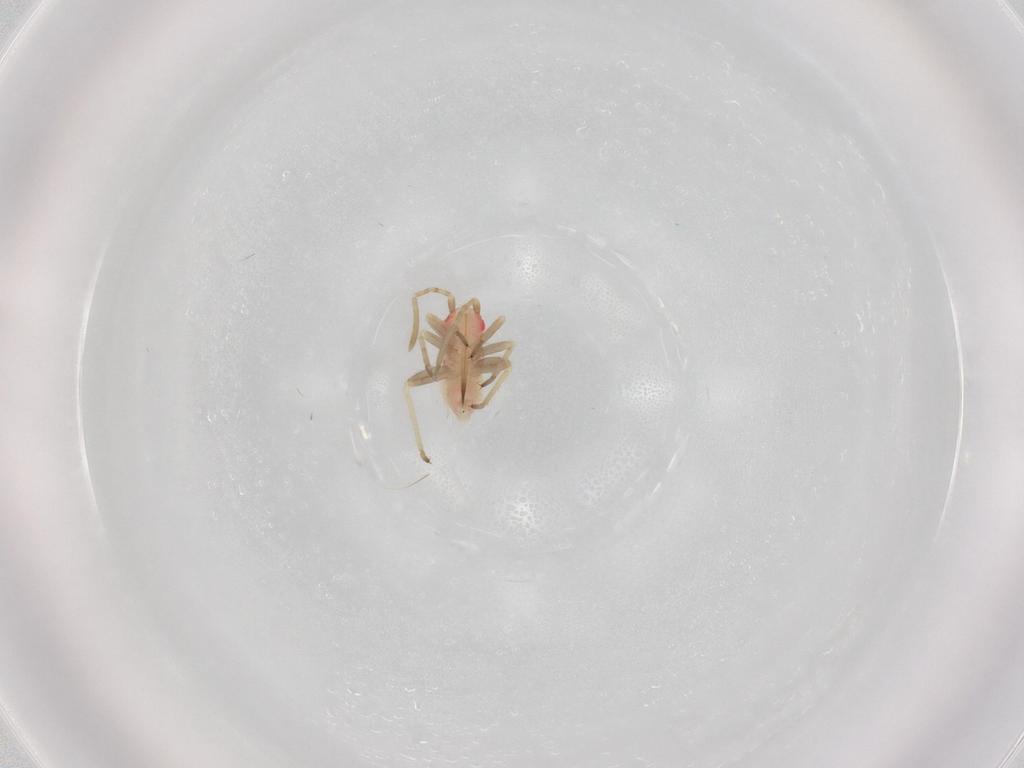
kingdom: Animalia
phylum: Arthropoda
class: Insecta
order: Hemiptera
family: Miridae
